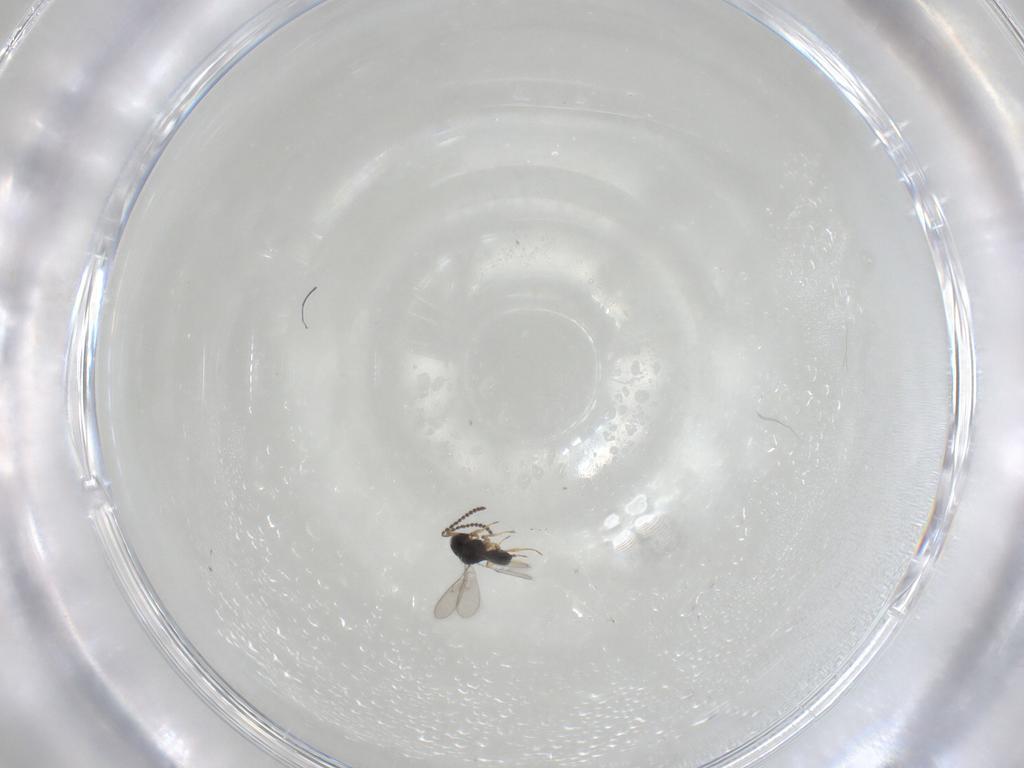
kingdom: Animalia
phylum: Arthropoda
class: Insecta
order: Hymenoptera
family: Scelionidae
